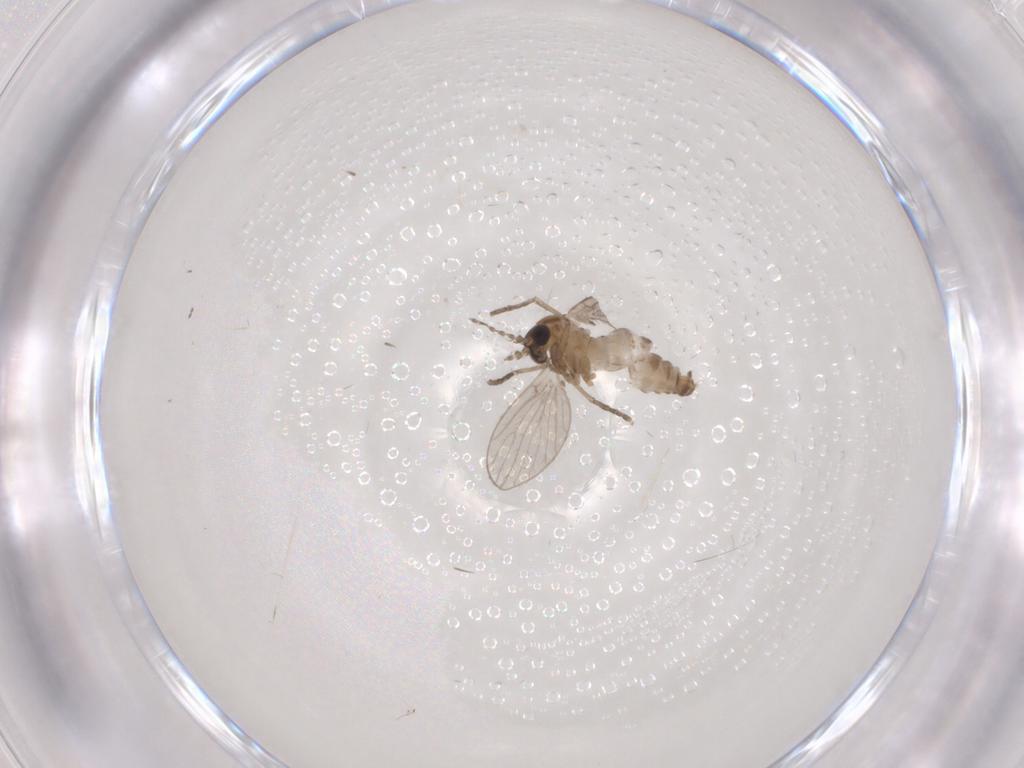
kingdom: Animalia
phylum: Arthropoda
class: Insecta
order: Diptera
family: Psychodidae
